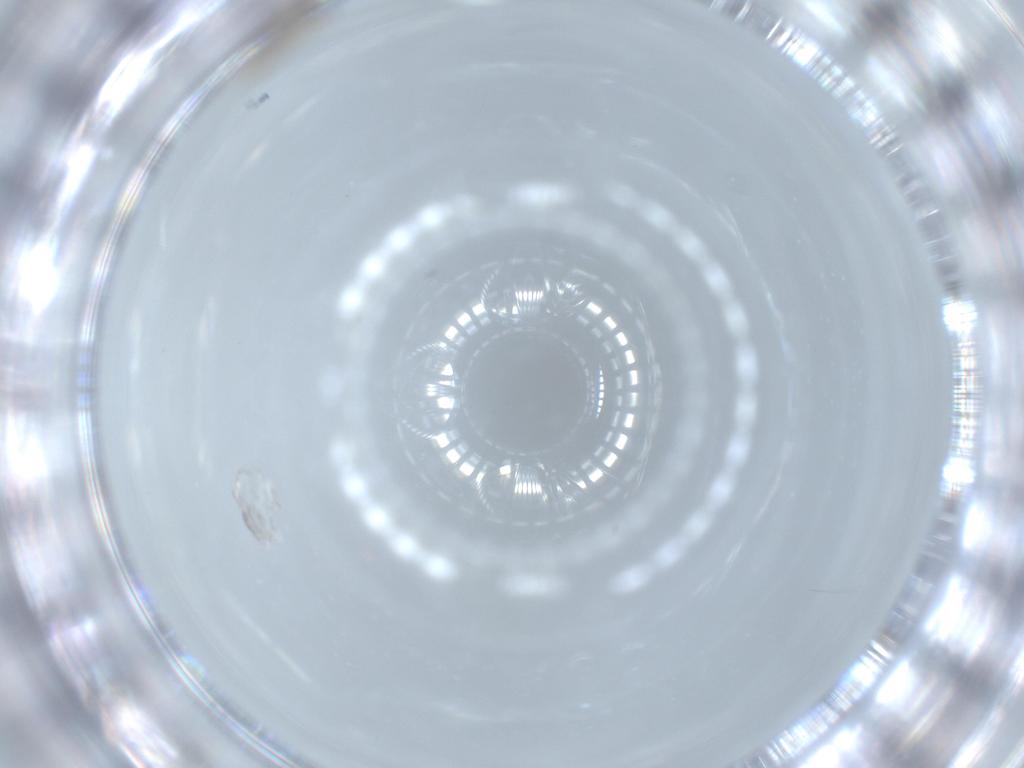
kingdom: Animalia
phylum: Arthropoda
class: Insecta
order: Diptera
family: Cecidomyiidae
